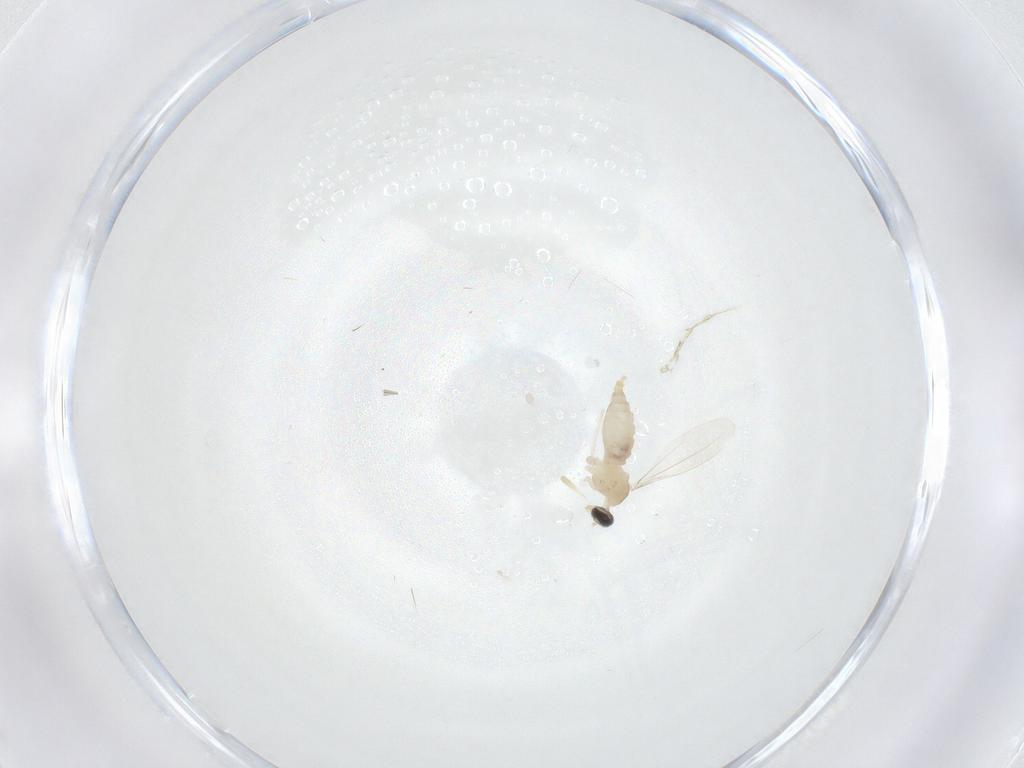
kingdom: Animalia
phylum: Arthropoda
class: Insecta
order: Diptera
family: Cecidomyiidae
